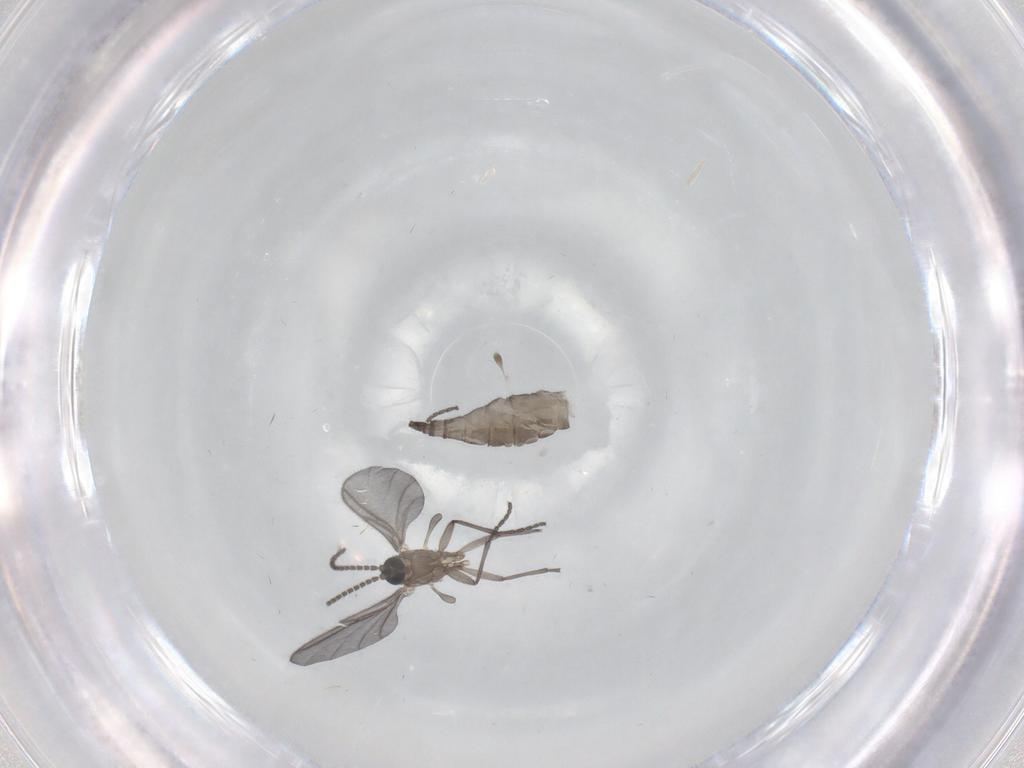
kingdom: Animalia
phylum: Arthropoda
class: Insecta
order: Diptera
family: Sciaridae
